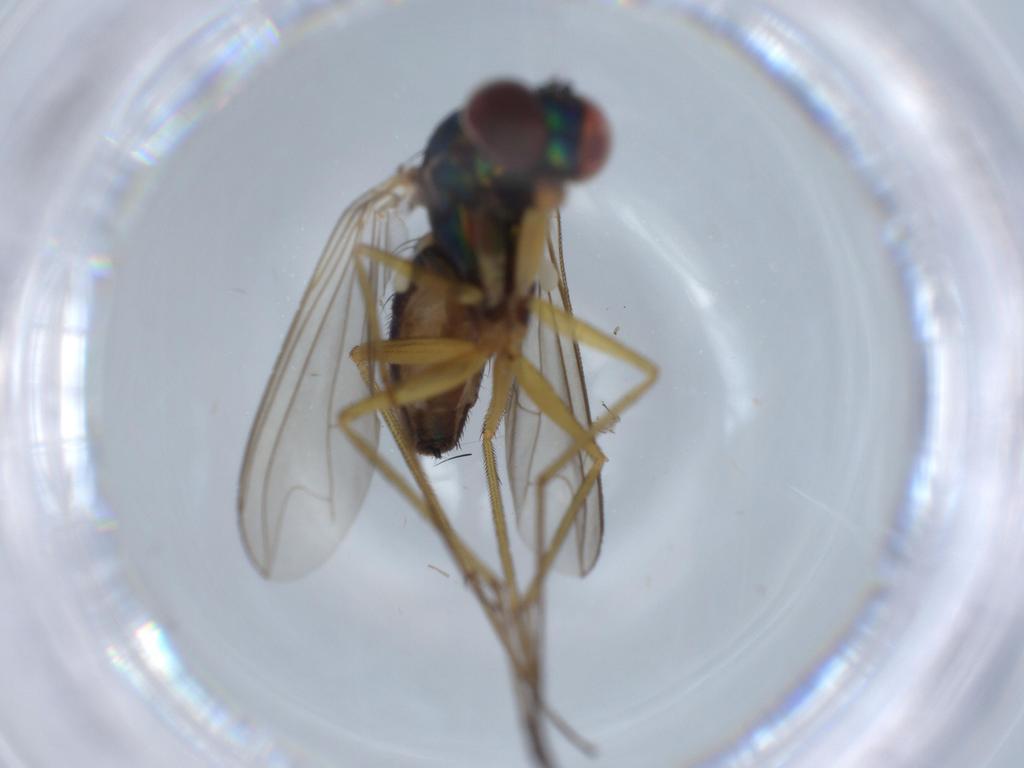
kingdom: Animalia
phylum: Arthropoda
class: Insecta
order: Diptera
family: Dolichopodidae
